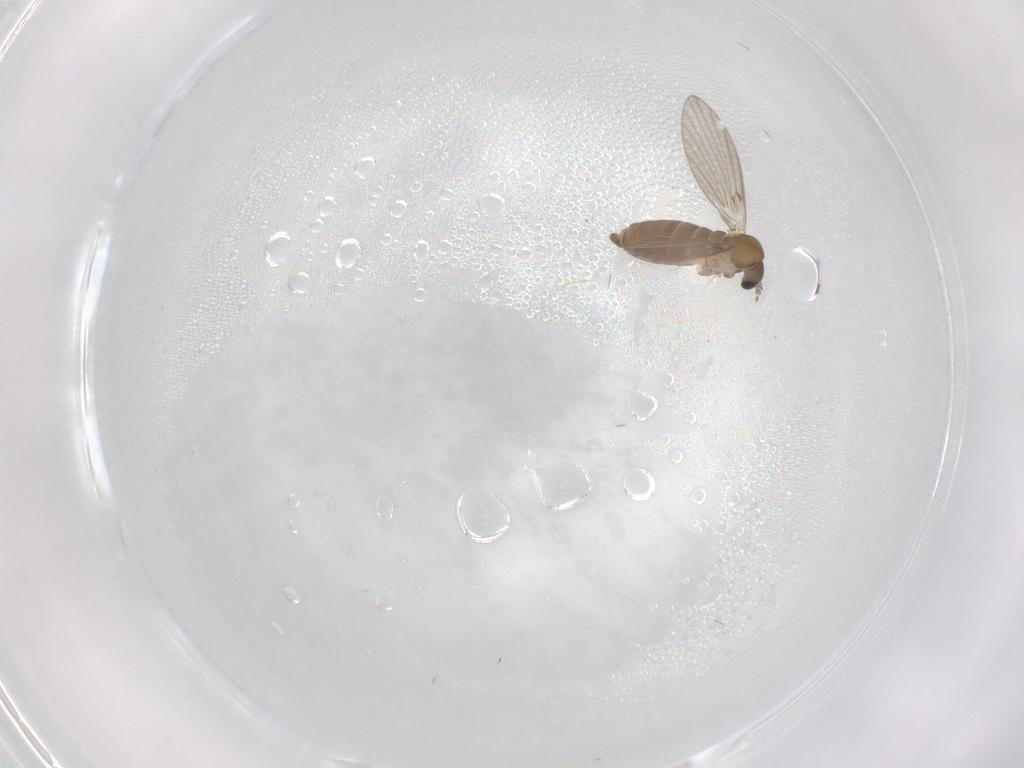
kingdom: Animalia
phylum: Arthropoda
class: Insecta
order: Diptera
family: Psychodidae
